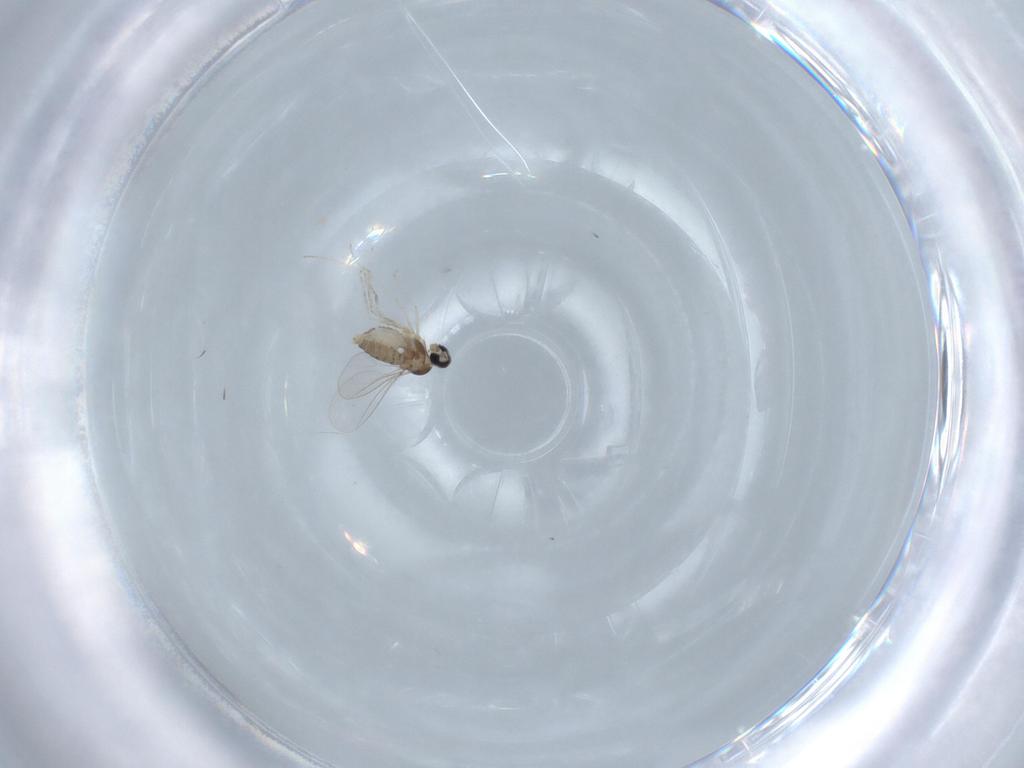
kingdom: Animalia
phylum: Arthropoda
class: Insecta
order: Diptera
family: Cecidomyiidae
